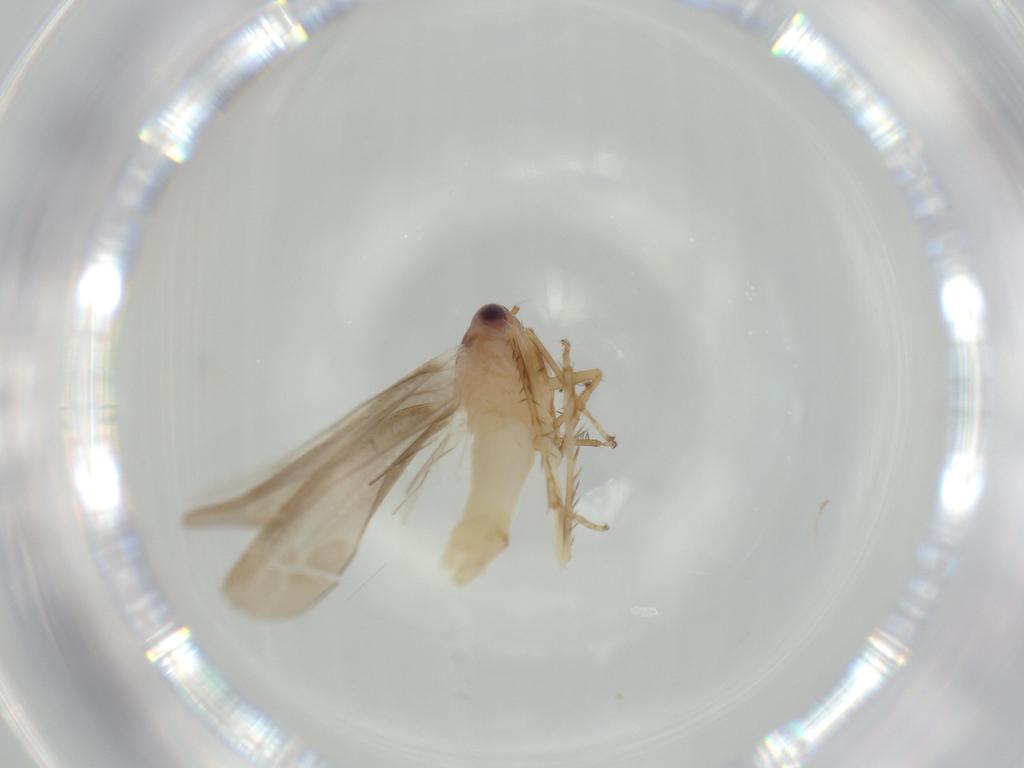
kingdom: Animalia
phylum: Arthropoda
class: Insecta
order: Hemiptera
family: Cicadellidae
